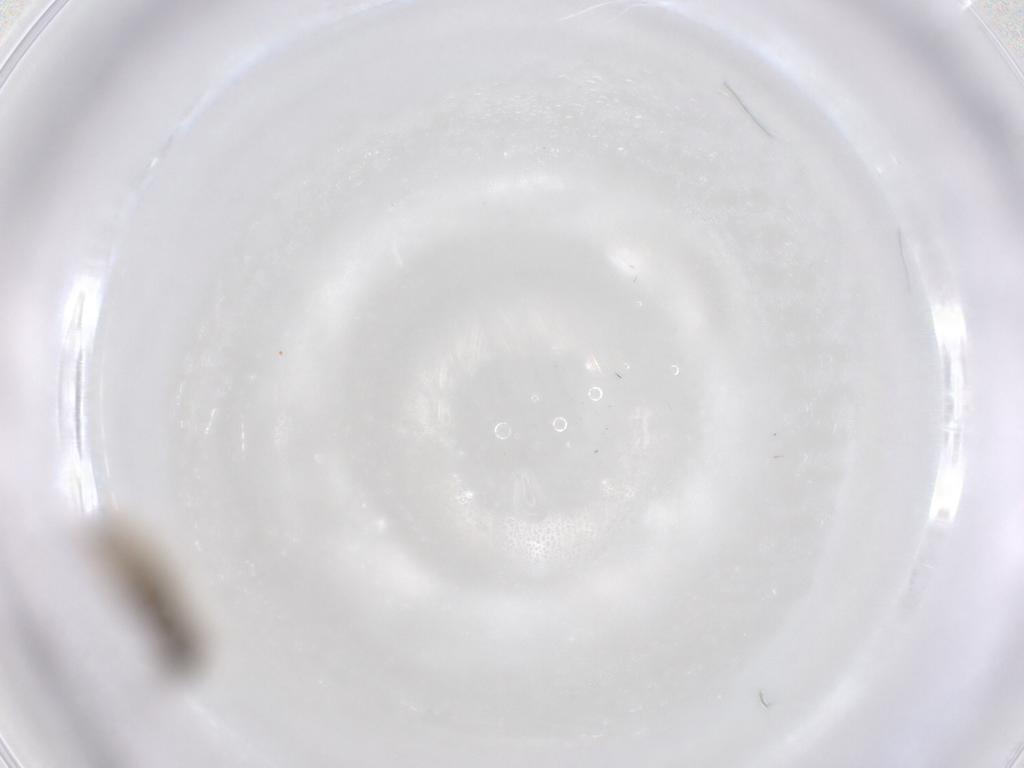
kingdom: Animalia
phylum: Arthropoda
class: Insecta
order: Diptera
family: Psychodidae
